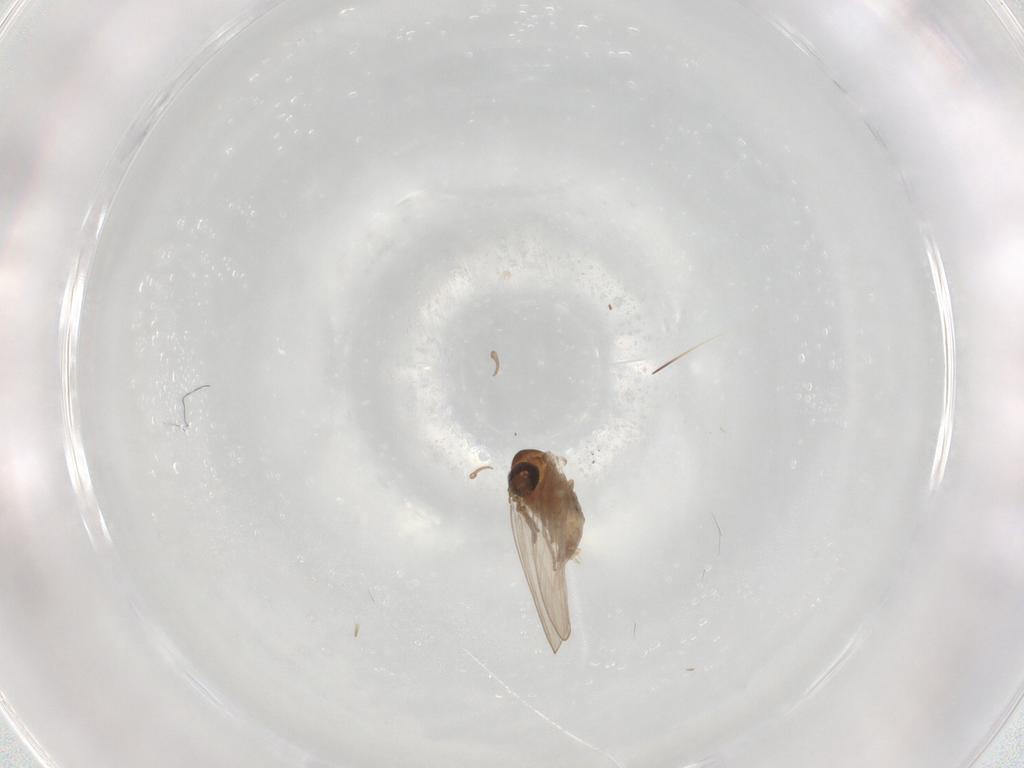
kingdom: Animalia
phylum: Arthropoda
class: Insecta
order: Diptera
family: Psychodidae
